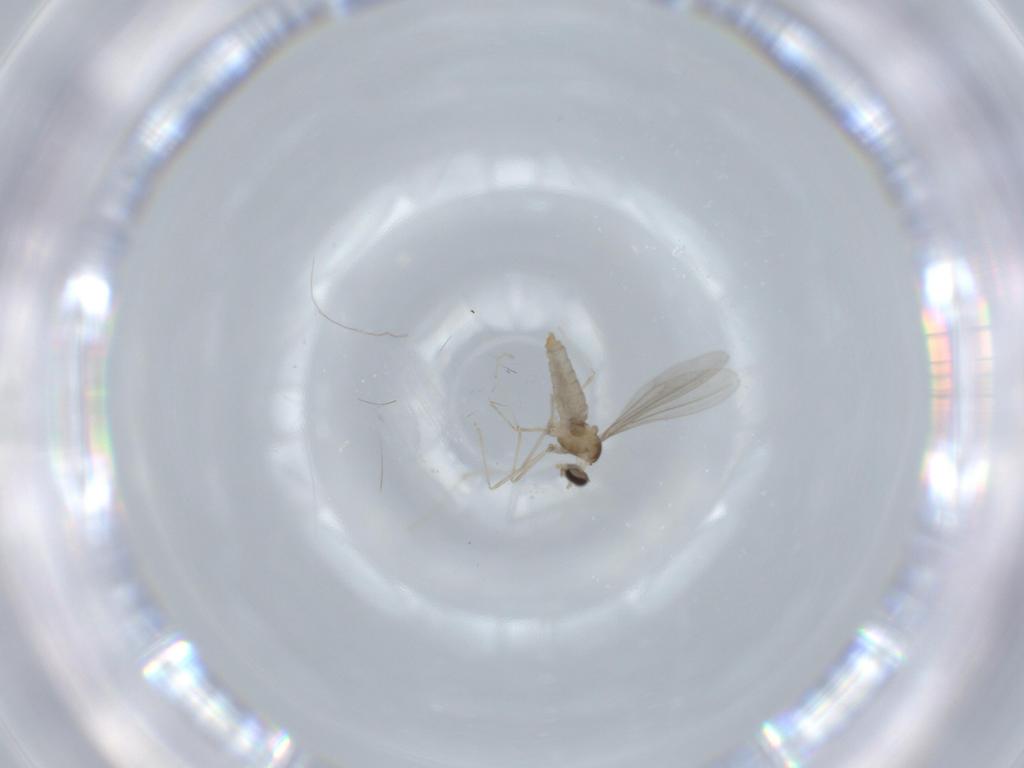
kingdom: Animalia
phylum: Arthropoda
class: Insecta
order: Diptera
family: Cecidomyiidae
